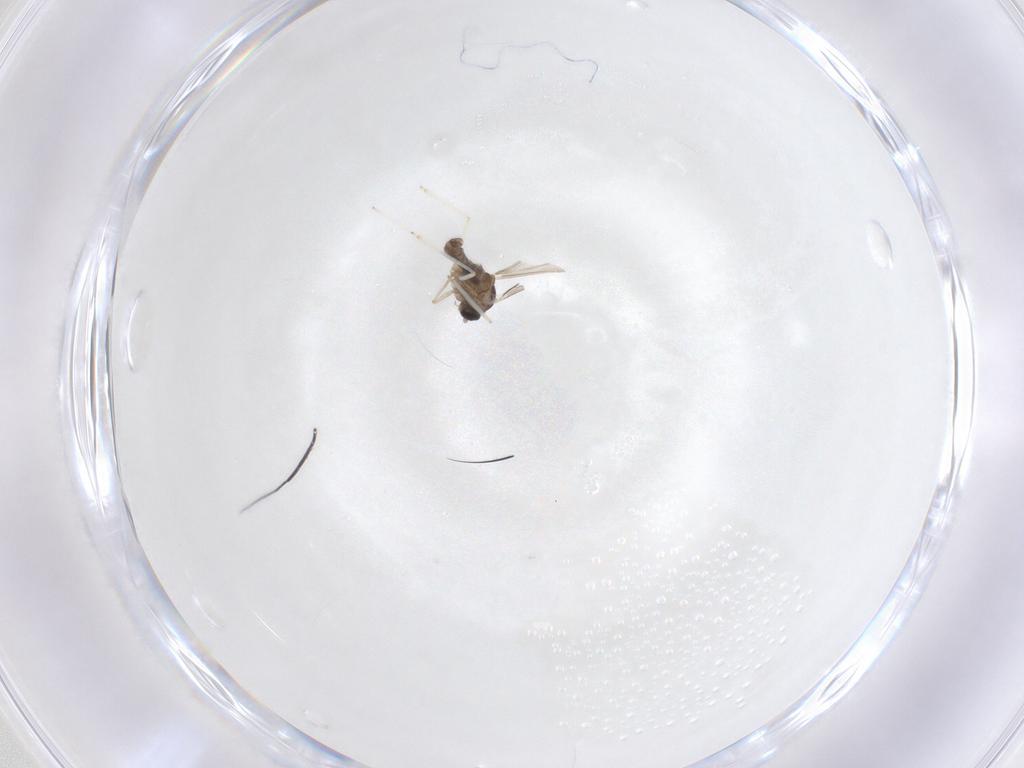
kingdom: Animalia
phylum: Arthropoda
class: Insecta
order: Diptera
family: Cecidomyiidae
